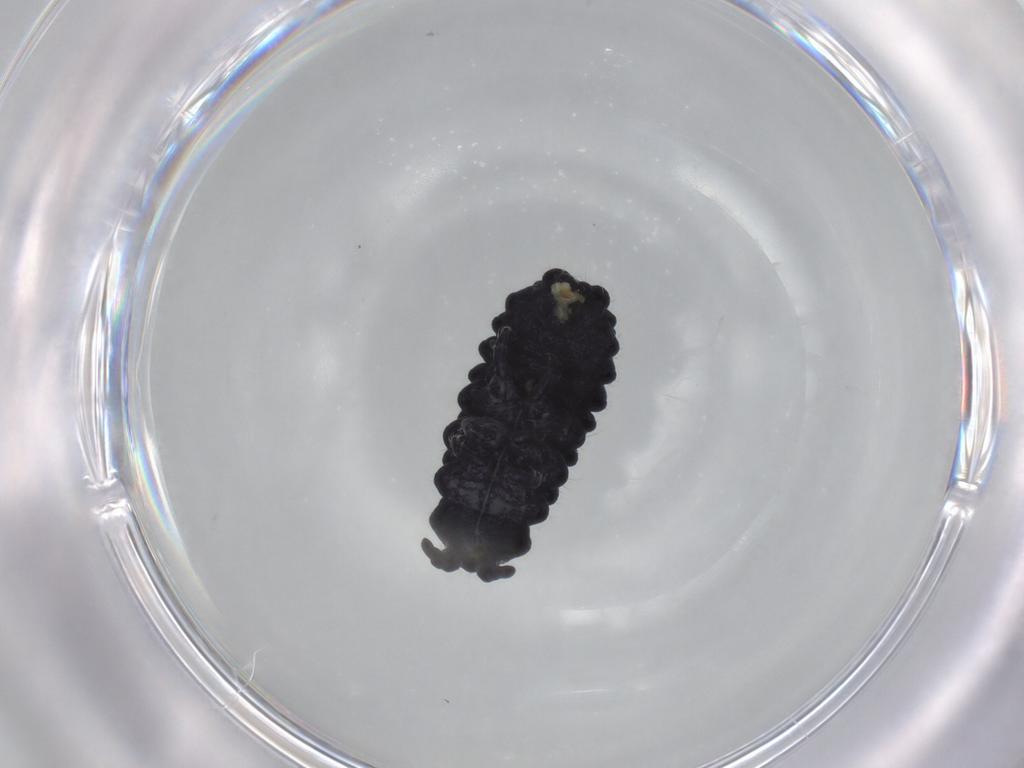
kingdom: Animalia
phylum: Arthropoda
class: Collembola
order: Poduromorpha
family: Neanuridae
